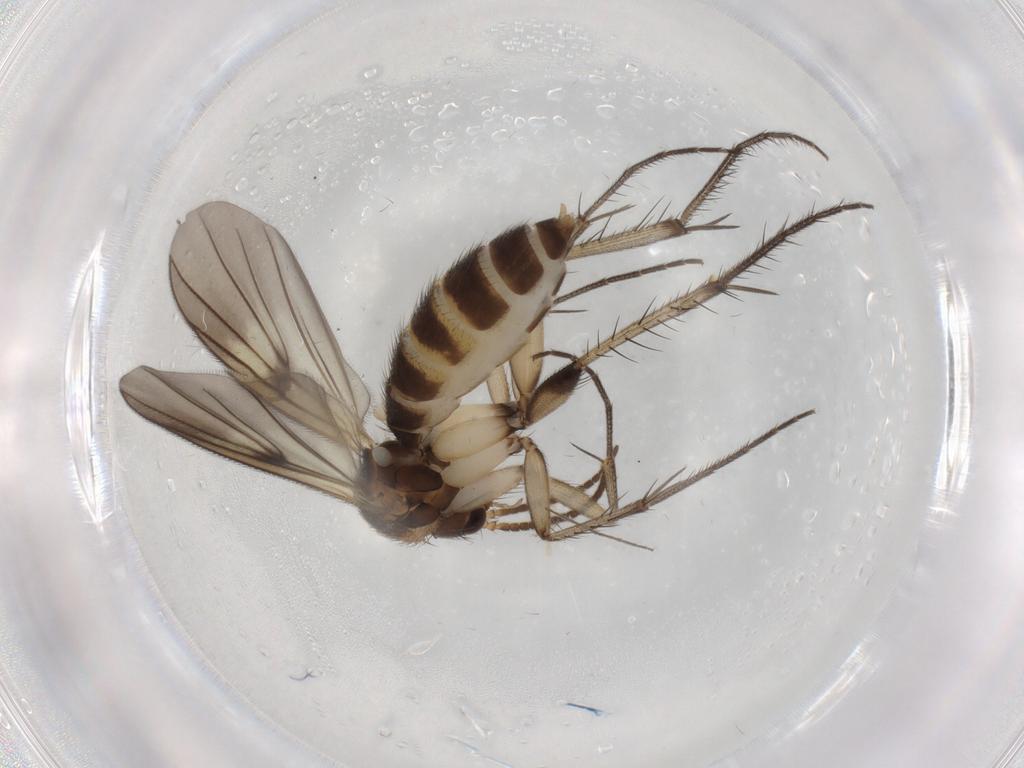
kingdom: Animalia
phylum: Arthropoda
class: Insecta
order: Diptera
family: Mycetophilidae
